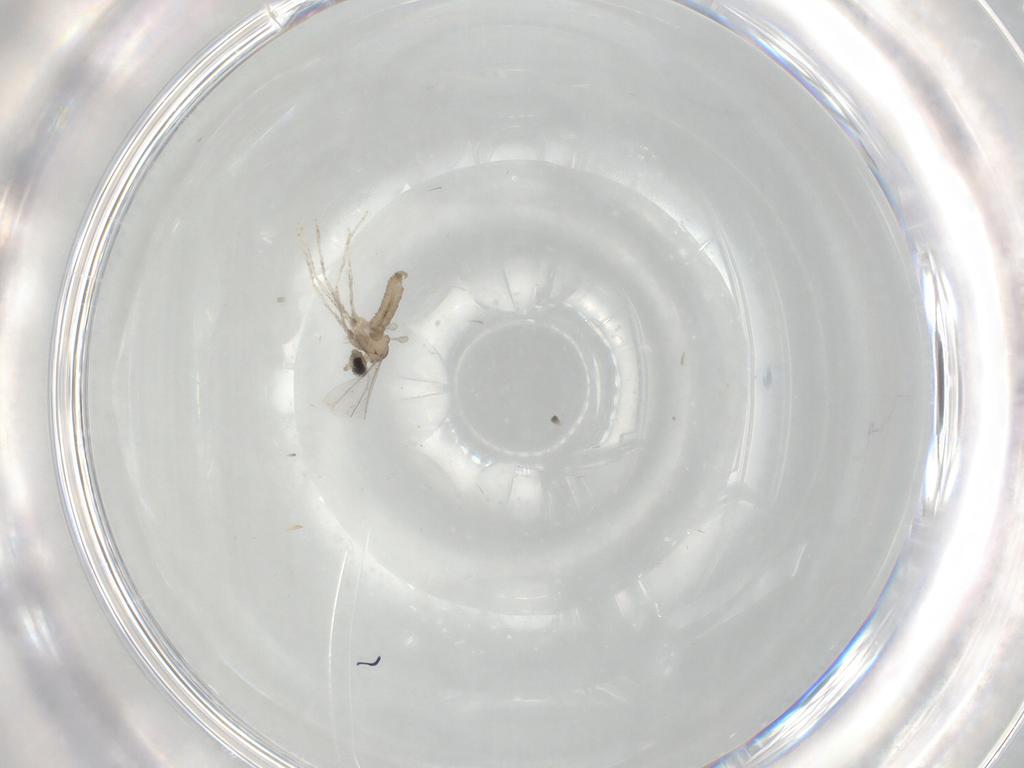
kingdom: Animalia
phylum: Arthropoda
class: Insecta
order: Diptera
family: Cecidomyiidae
